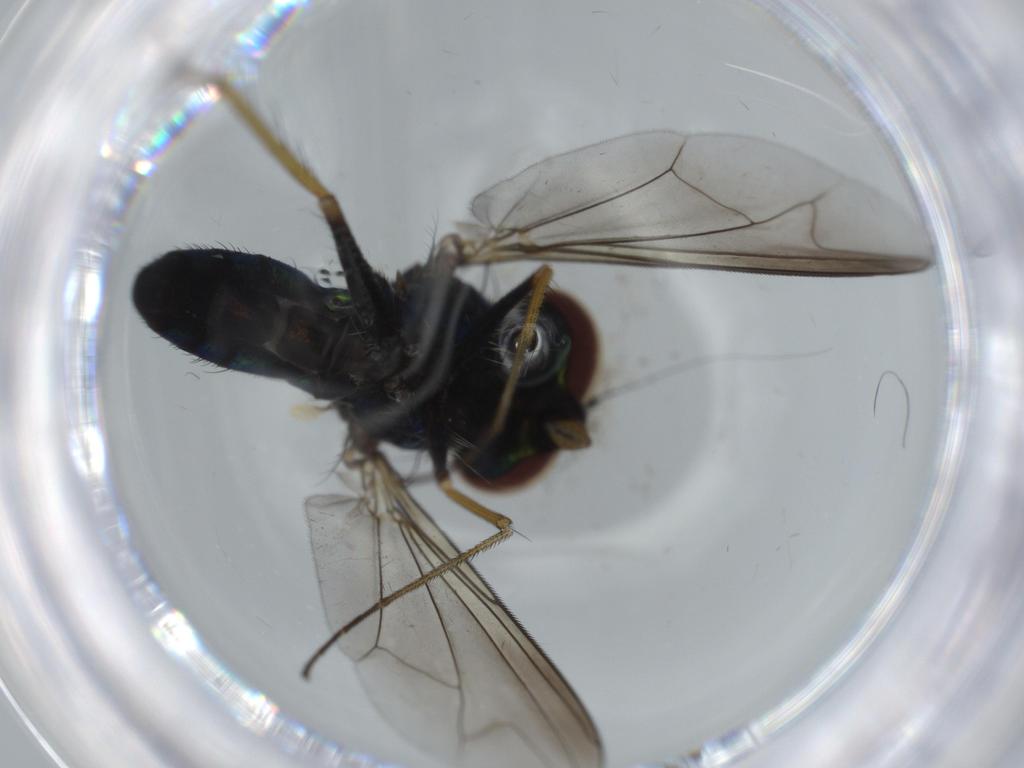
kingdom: Animalia
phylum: Arthropoda
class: Insecta
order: Diptera
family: Dolichopodidae
